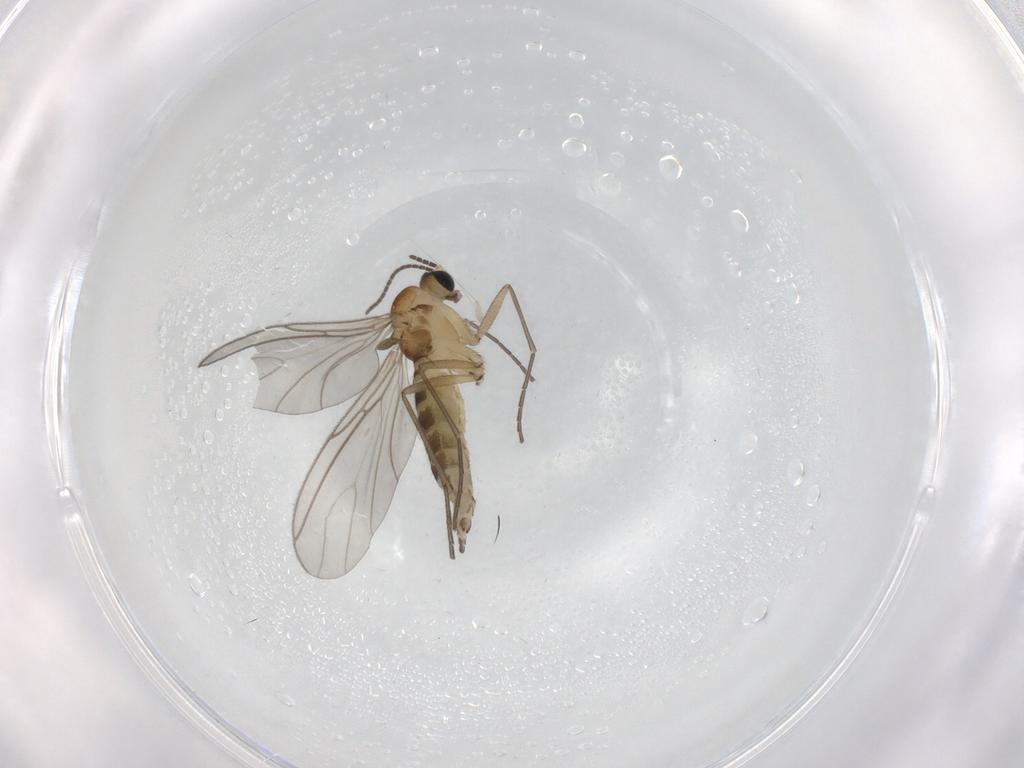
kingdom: Animalia
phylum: Arthropoda
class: Insecta
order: Diptera
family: Sciaridae
